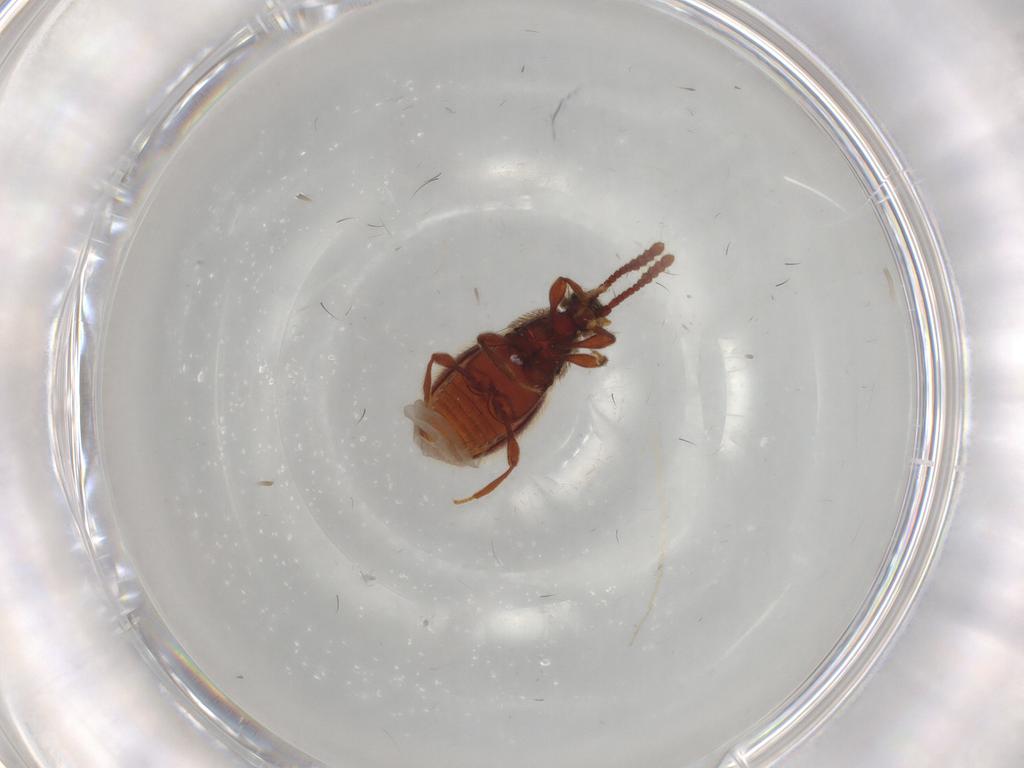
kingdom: Animalia
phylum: Arthropoda
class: Insecta
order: Coleoptera
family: Staphylinidae
